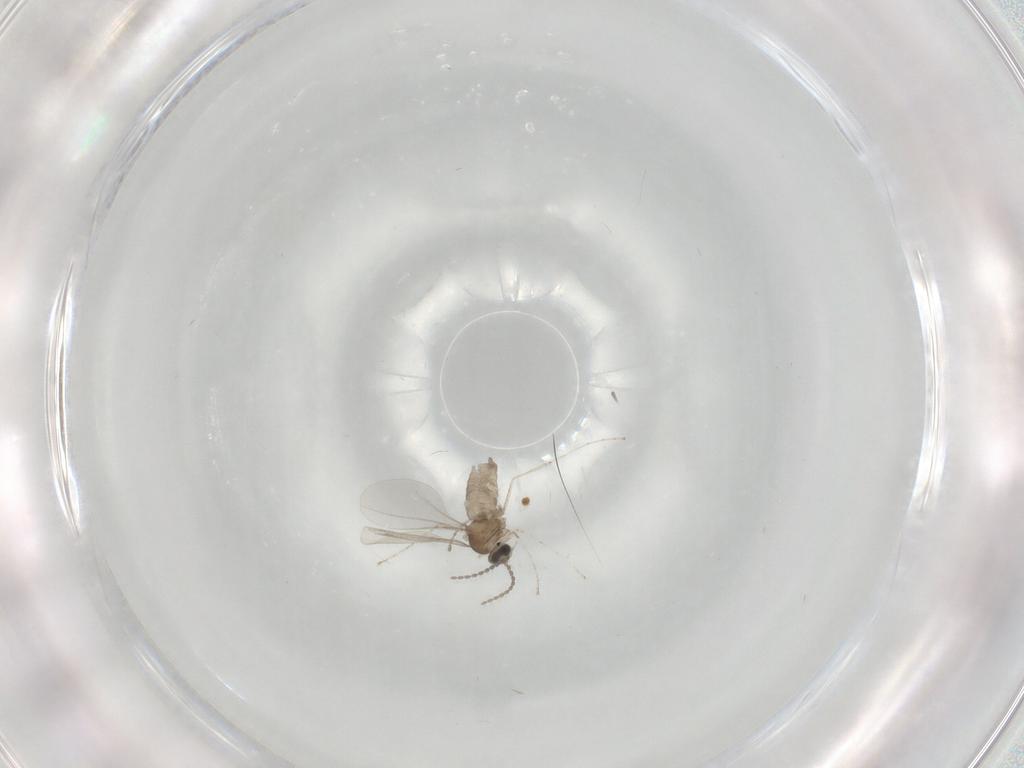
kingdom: Animalia
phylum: Arthropoda
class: Insecta
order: Diptera
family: Cecidomyiidae
